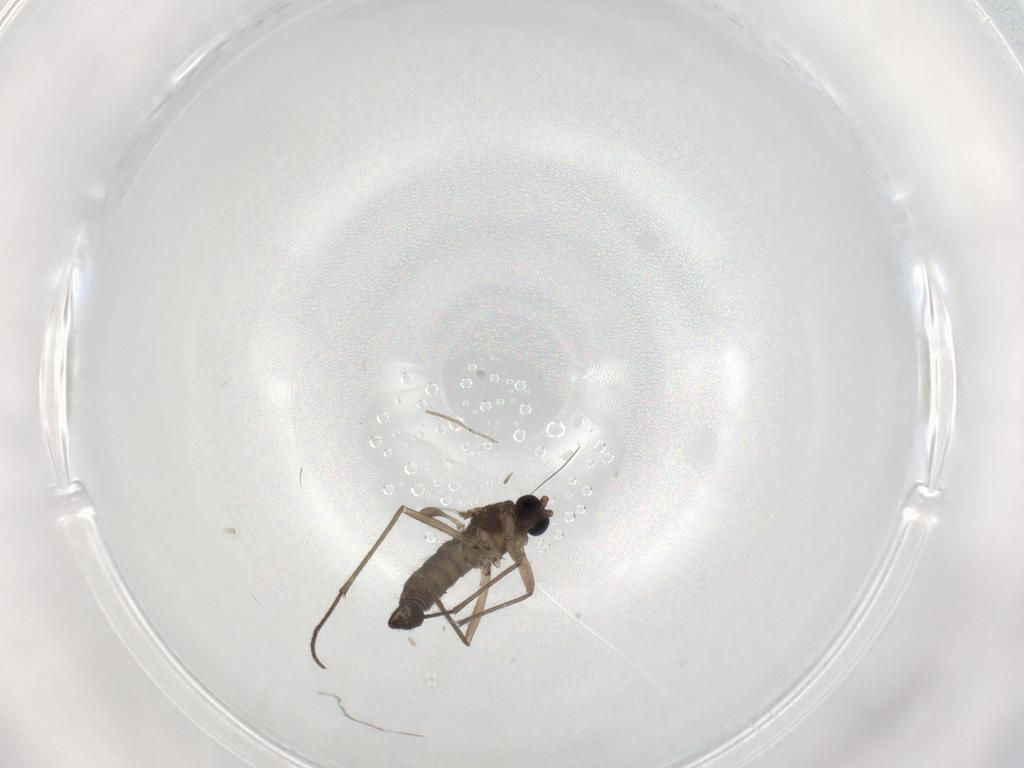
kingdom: Animalia
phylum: Arthropoda
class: Insecta
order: Diptera
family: Sciaridae
